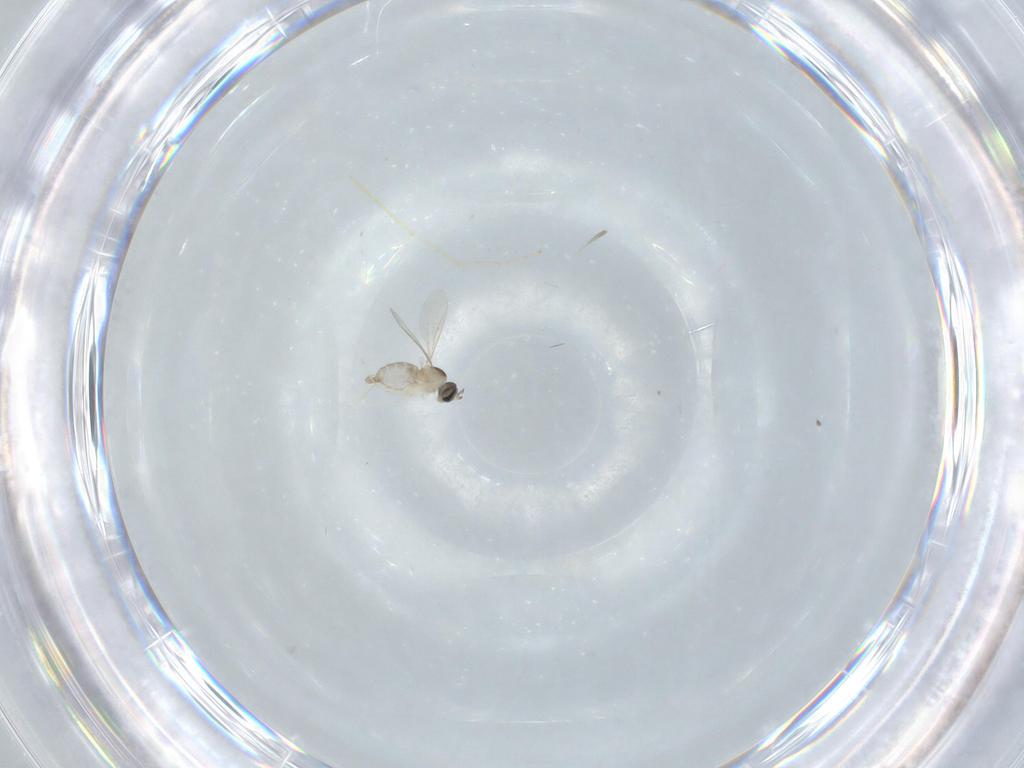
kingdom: Animalia
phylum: Arthropoda
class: Insecta
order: Diptera
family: Cecidomyiidae
